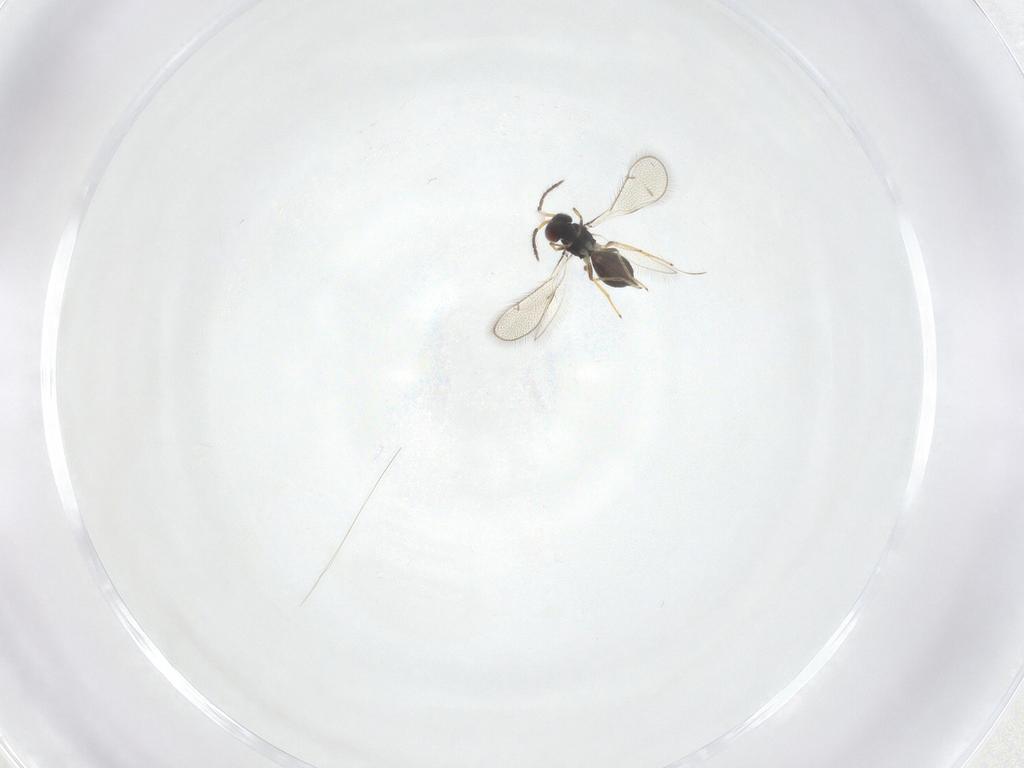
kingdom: Animalia
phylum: Arthropoda
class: Insecta
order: Hymenoptera
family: Eulophidae
